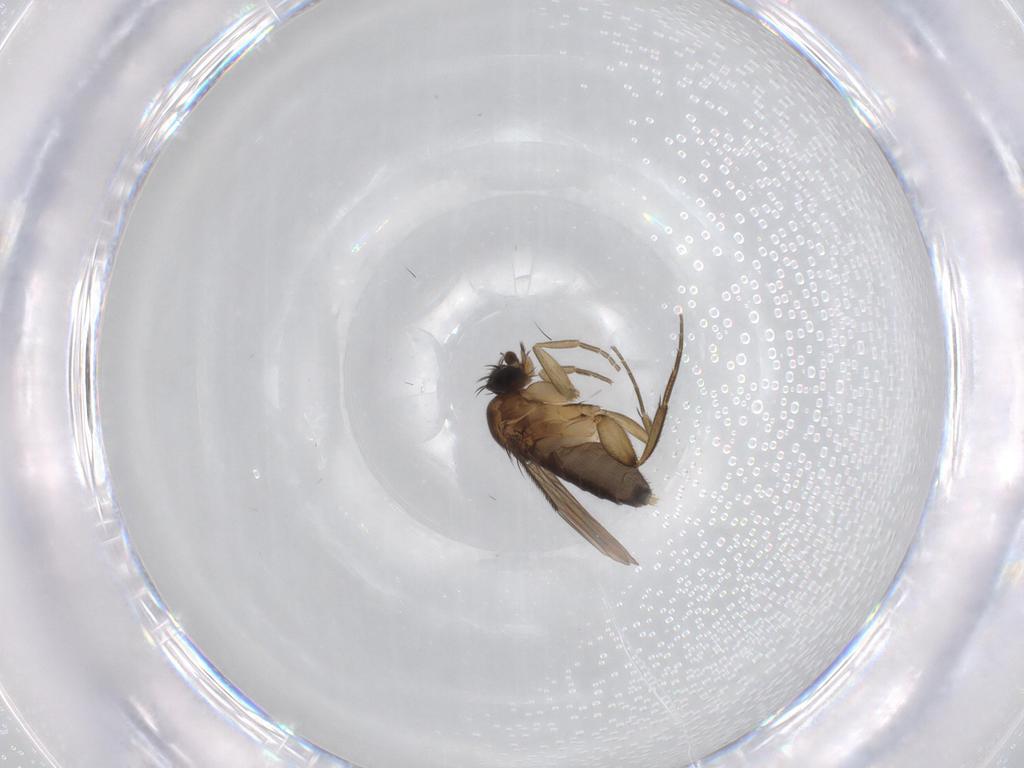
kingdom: Animalia
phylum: Arthropoda
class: Insecta
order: Diptera
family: Phoridae
